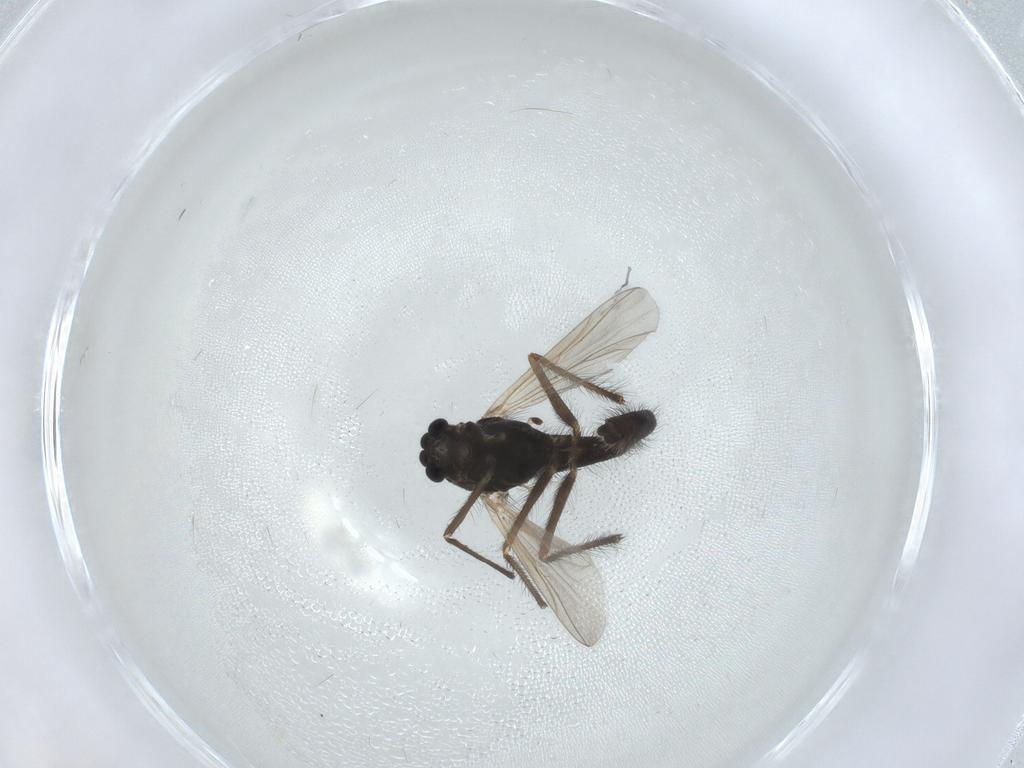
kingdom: Animalia
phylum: Arthropoda
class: Insecta
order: Diptera
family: Chironomidae
